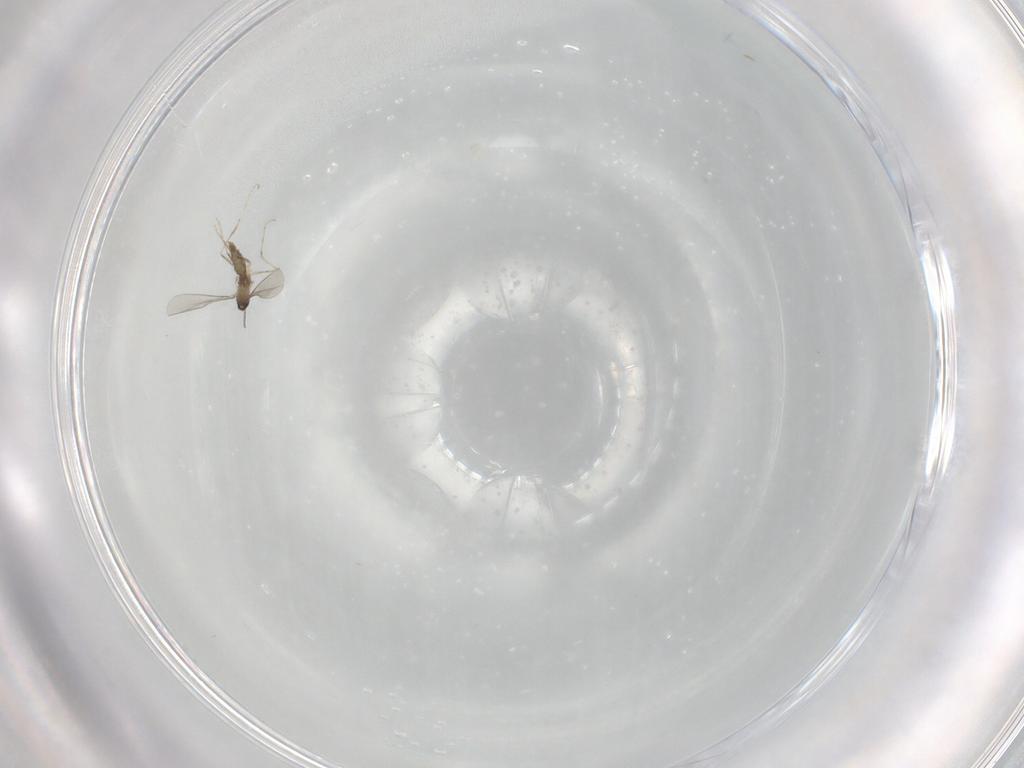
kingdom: Animalia
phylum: Arthropoda
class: Insecta
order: Diptera
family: Cecidomyiidae
